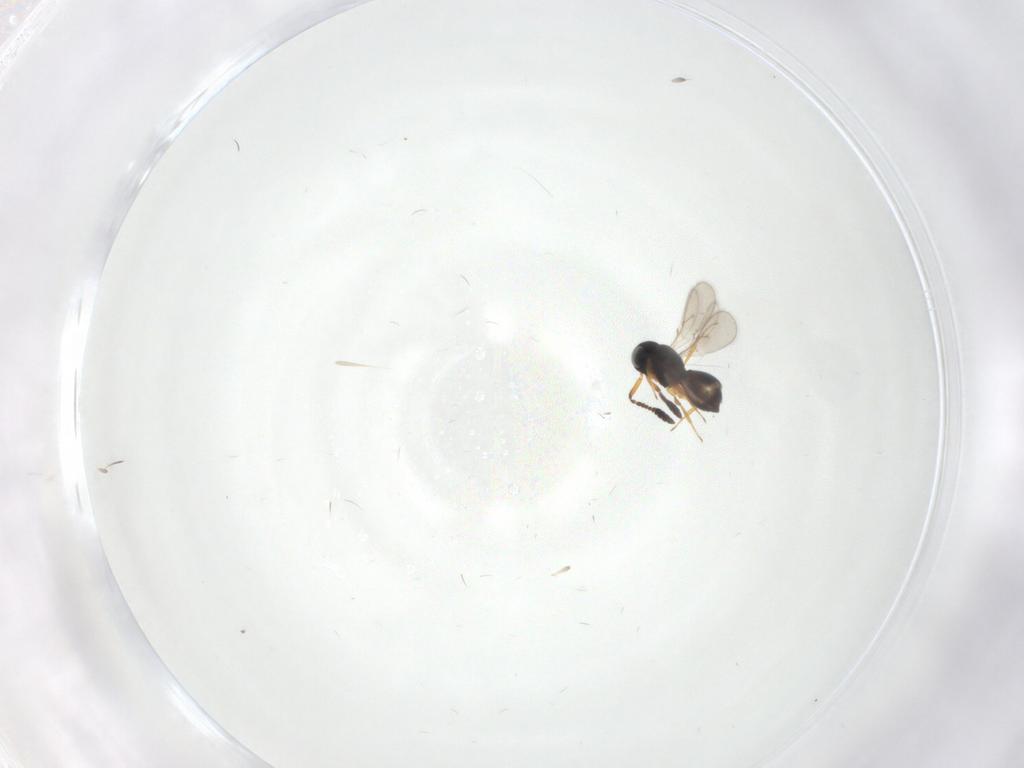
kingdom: Animalia
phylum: Arthropoda
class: Insecta
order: Hymenoptera
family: Scelionidae
